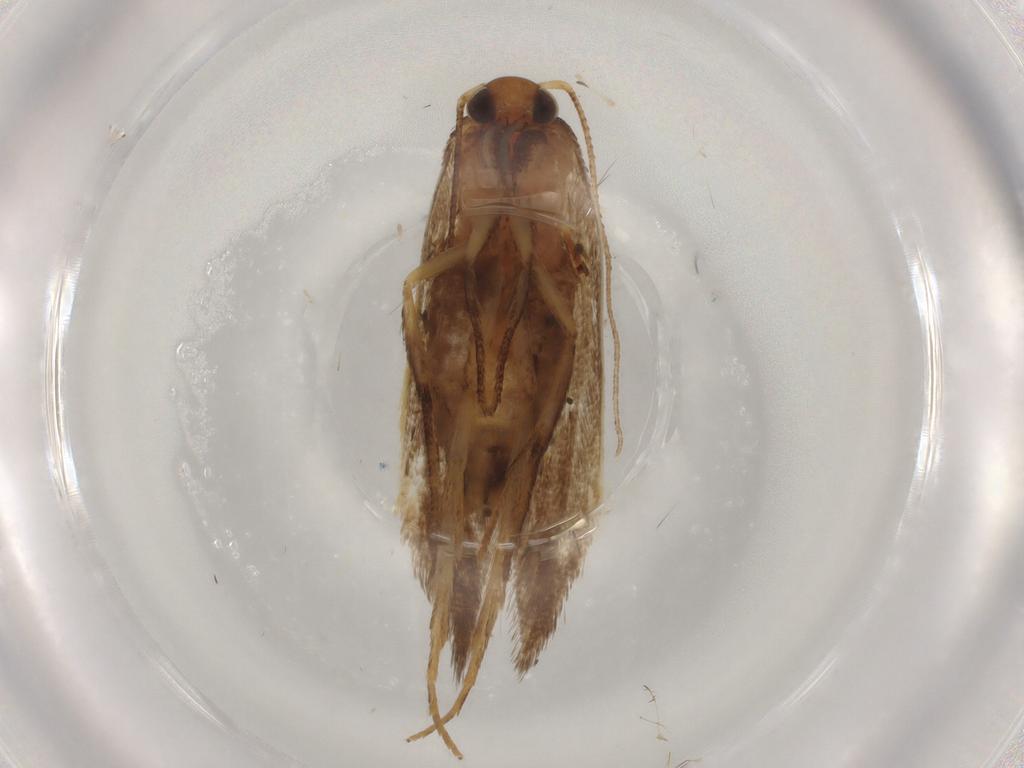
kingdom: Animalia
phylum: Arthropoda
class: Insecta
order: Lepidoptera
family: Oecophoridae
